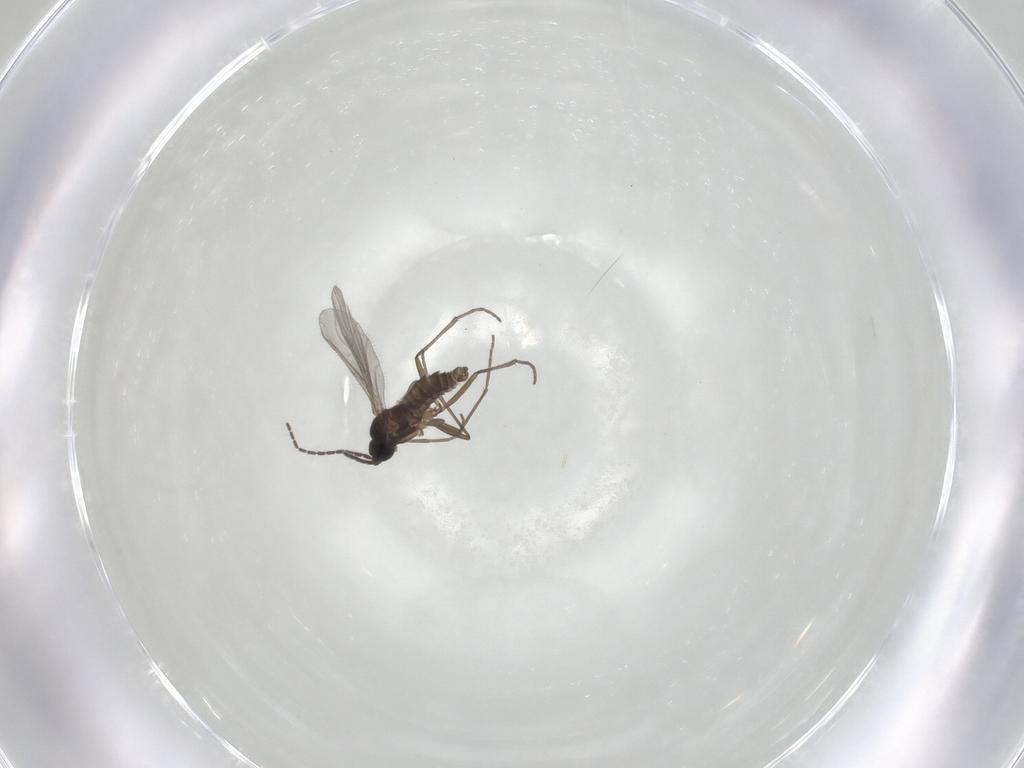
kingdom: Animalia
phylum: Arthropoda
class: Insecta
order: Diptera
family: Sciaridae
